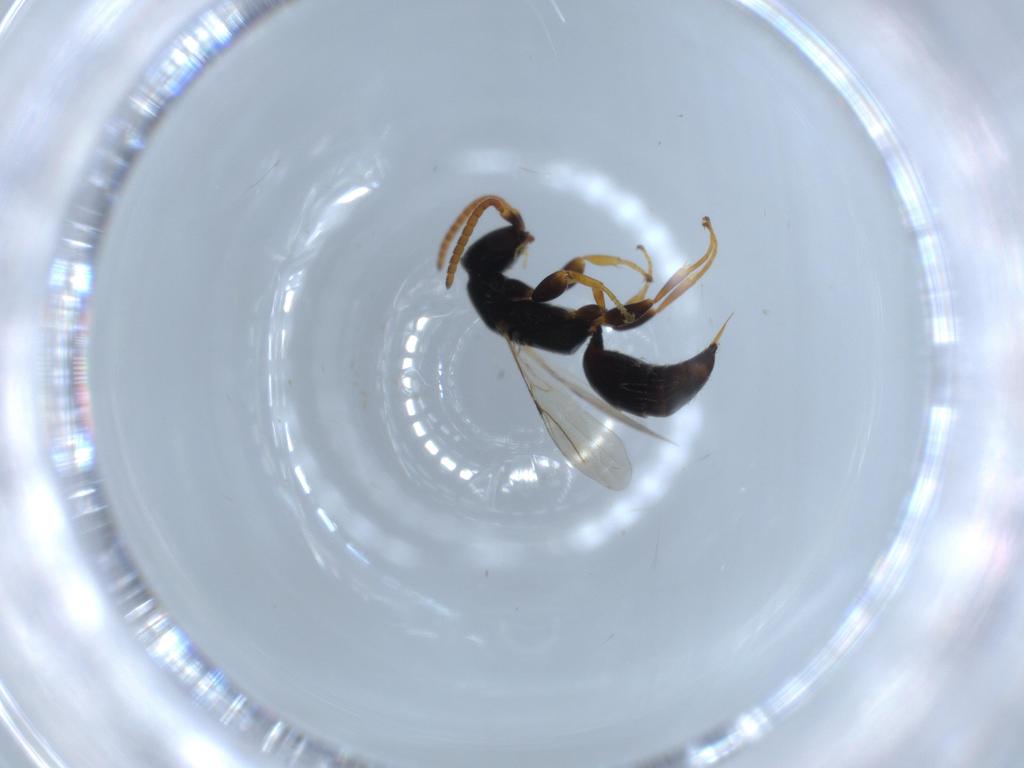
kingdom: Animalia
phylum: Arthropoda
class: Insecta
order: Hymenoptera
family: Bethylidae
